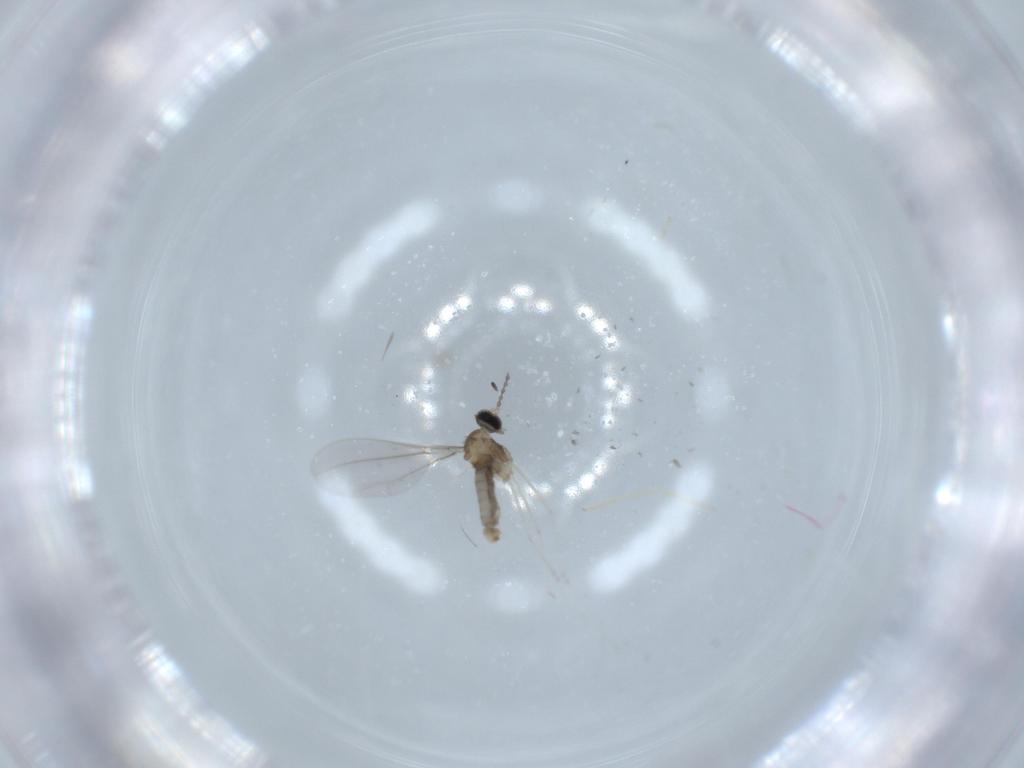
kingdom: Animalia
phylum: Arthropoda
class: Insecta
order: Diptera
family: Cecidomyiidae
